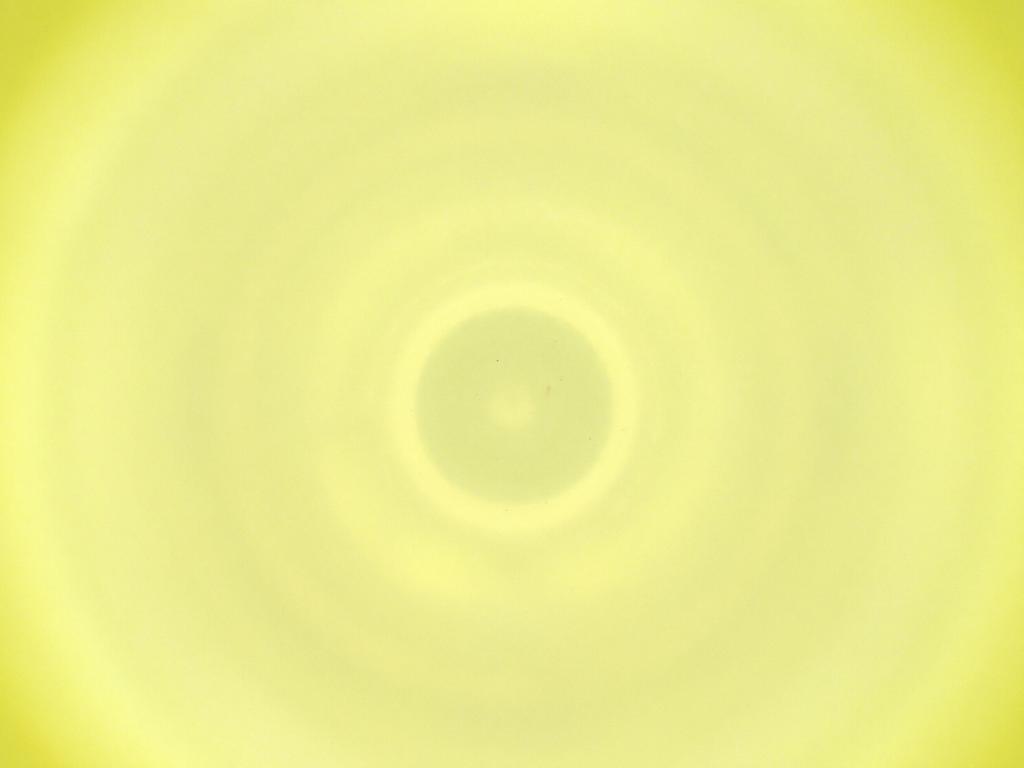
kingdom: Animalia
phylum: Arthropoda
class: Insecta
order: Diptera
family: Cecidomyiidae
